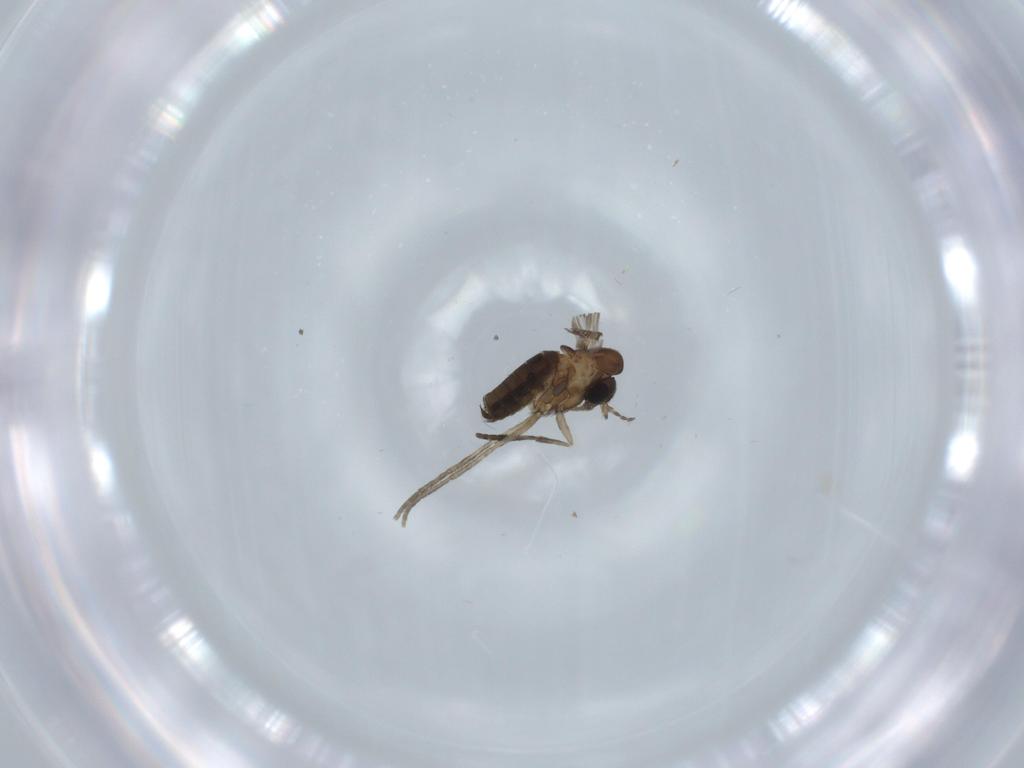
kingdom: Animalia
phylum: Arthropoda
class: Insecta
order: Diptera
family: Psychodidae
